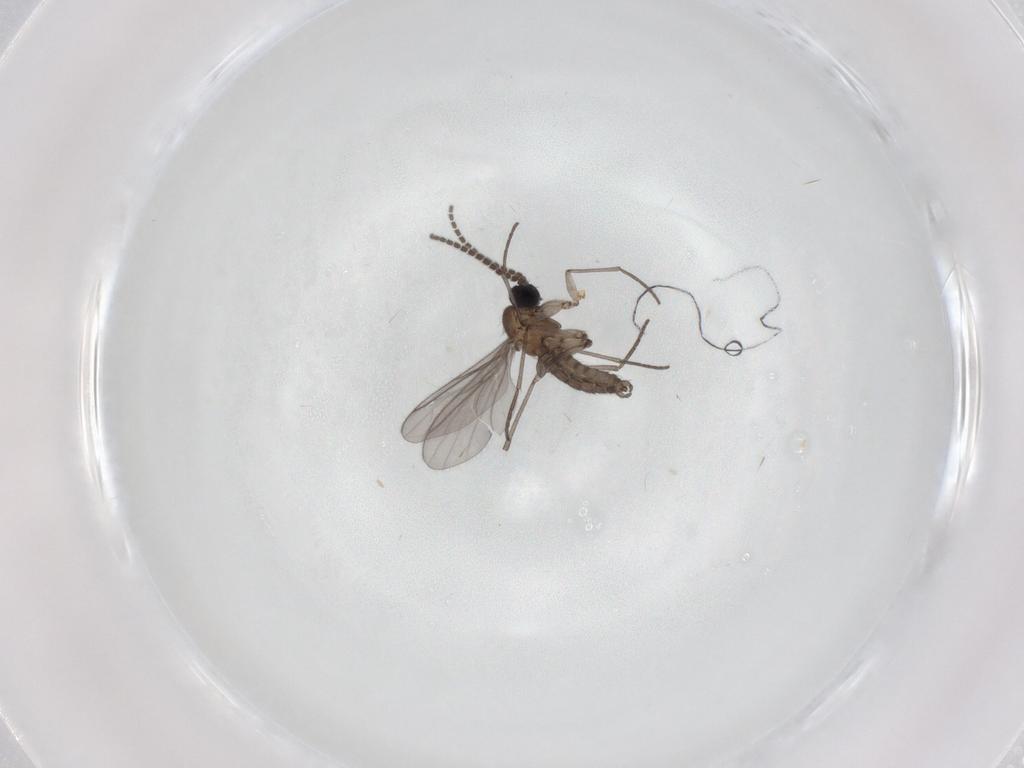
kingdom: Animalia
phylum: Arthropoda
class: Insecta
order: Diptera
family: Dolichopodidae
